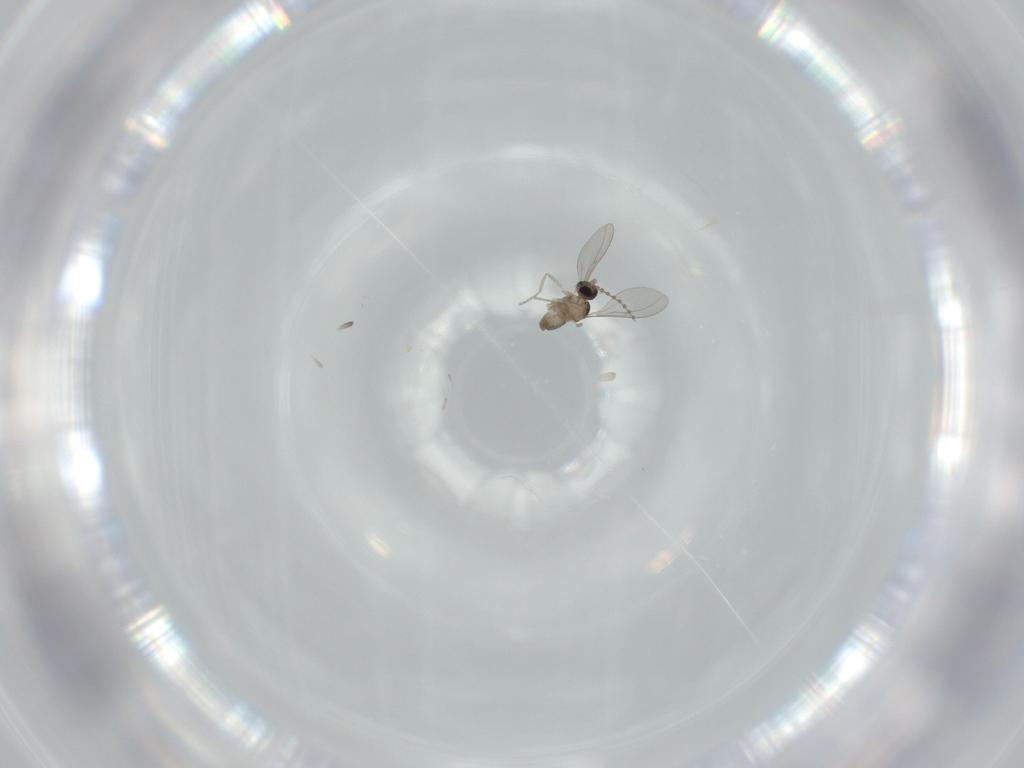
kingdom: Animalia
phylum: Arthropoda
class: Insecta
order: Diptera
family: Cecidomyiidae
